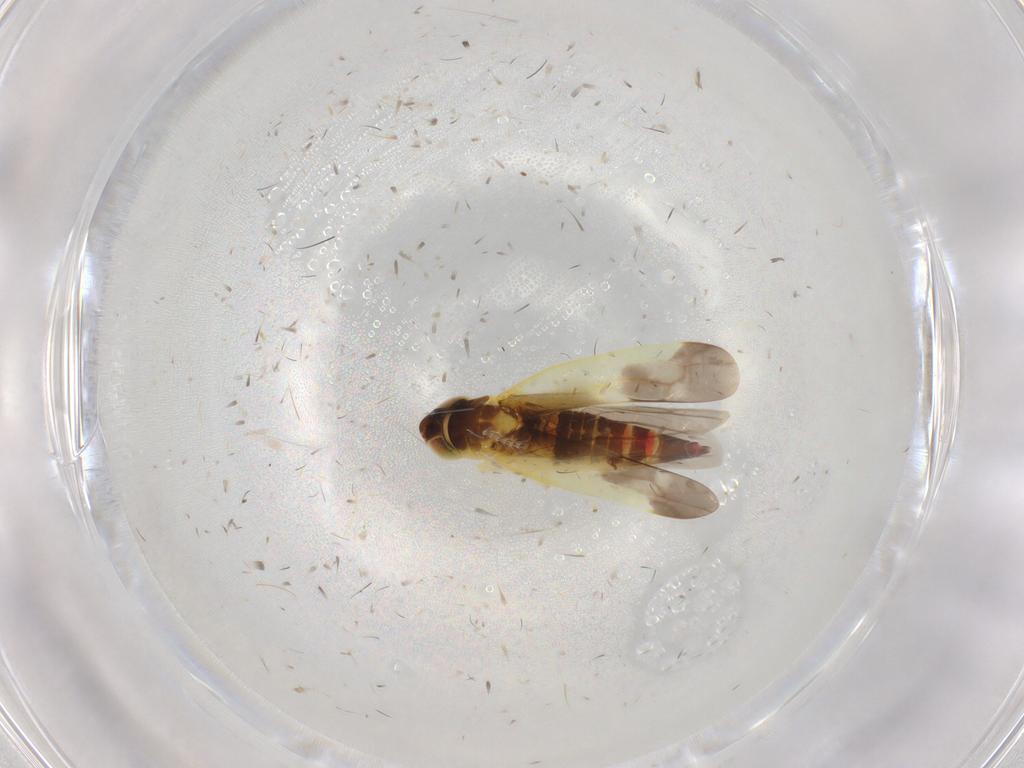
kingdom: Animalia
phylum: Arthropoda
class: Insecta
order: Hemiptera
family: Cicadellidae
